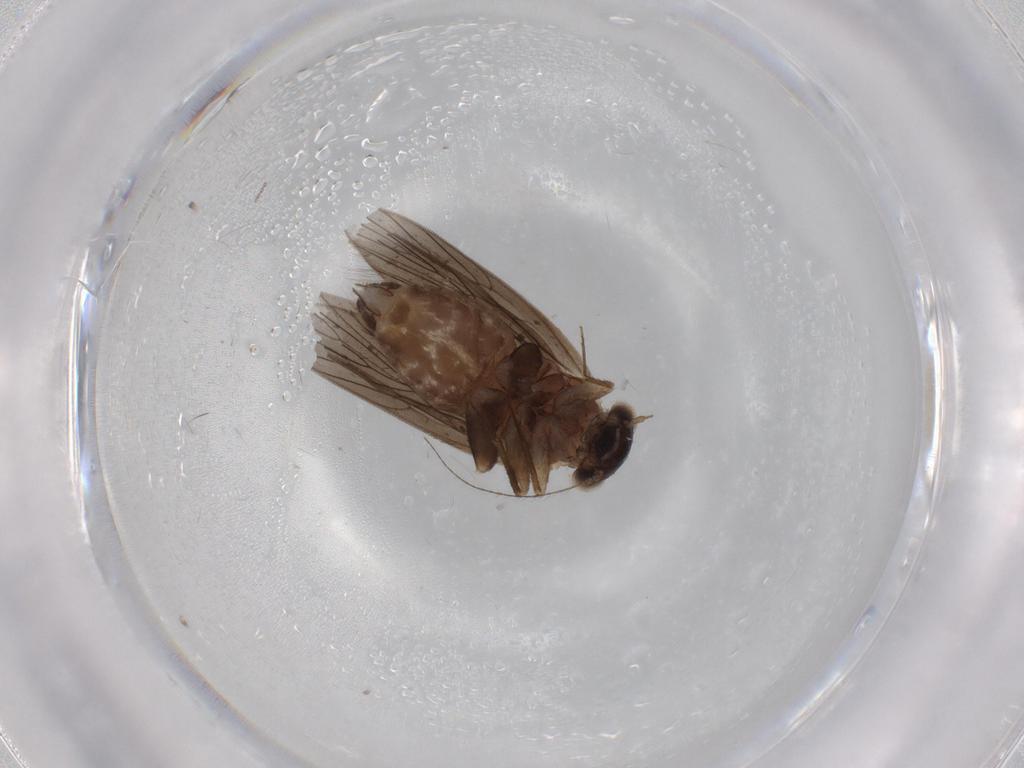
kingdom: Animalia
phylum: Arthropoda
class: Insecta
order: Psocodea
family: Lepidopsocidae
